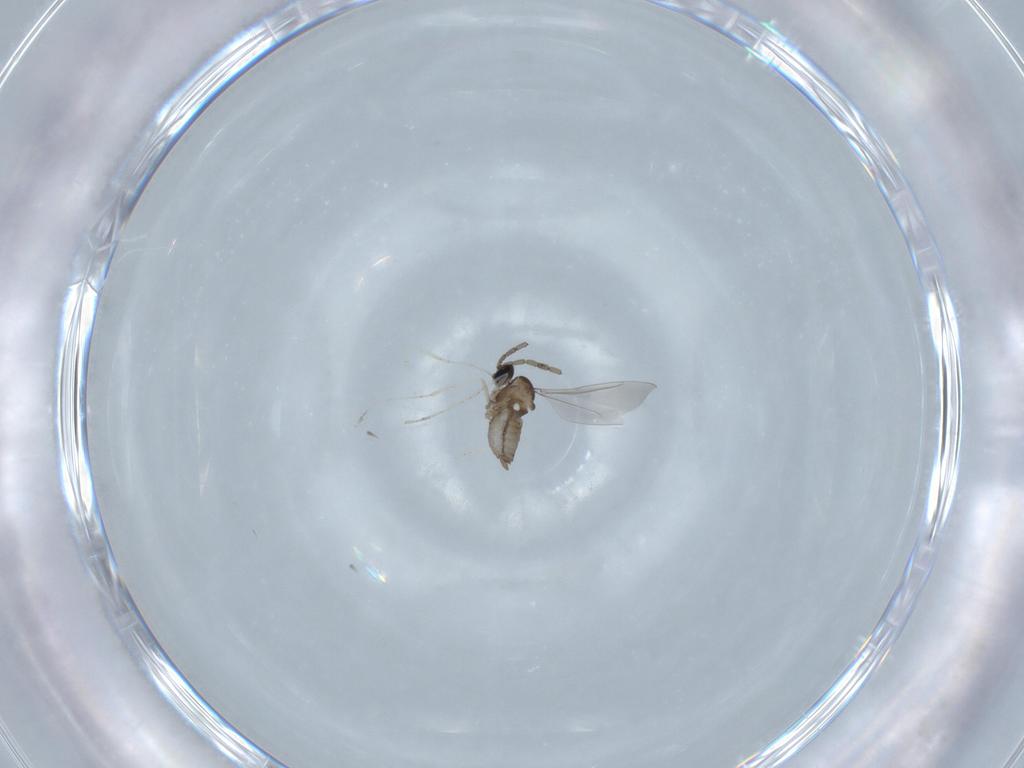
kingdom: Animalia
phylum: Arthropoda
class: Insecta
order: Diptera
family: Cecidomyiidae
